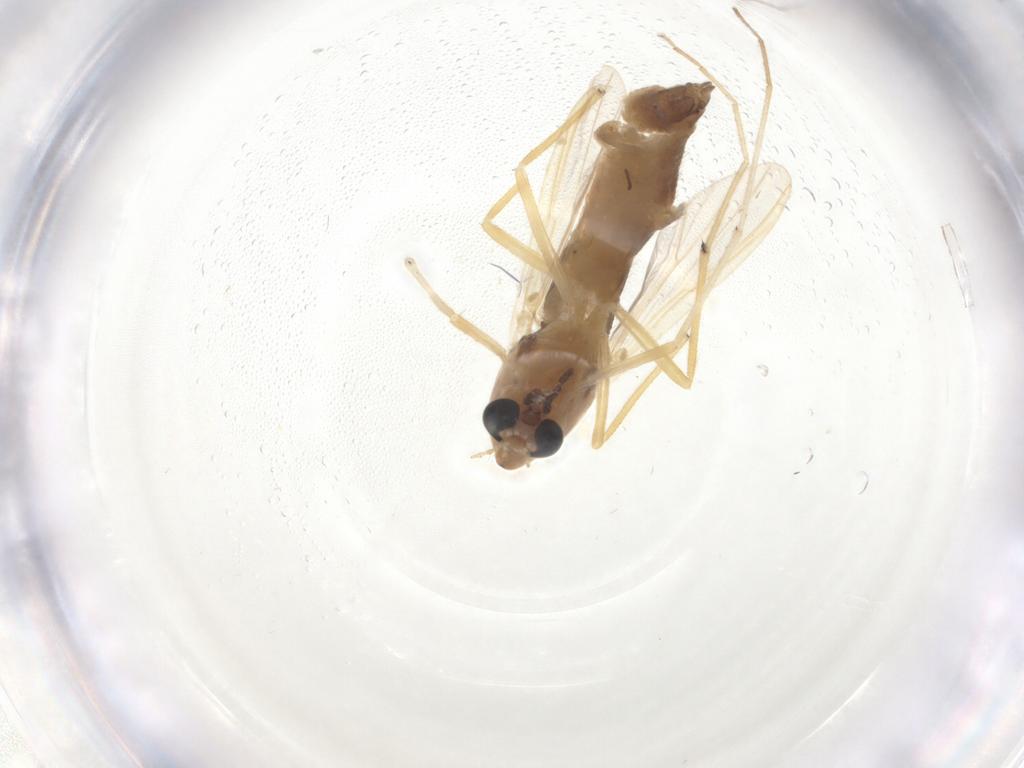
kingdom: Animalia
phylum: Arthropoda
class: Insecta
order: Diptera
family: Chironomidae
